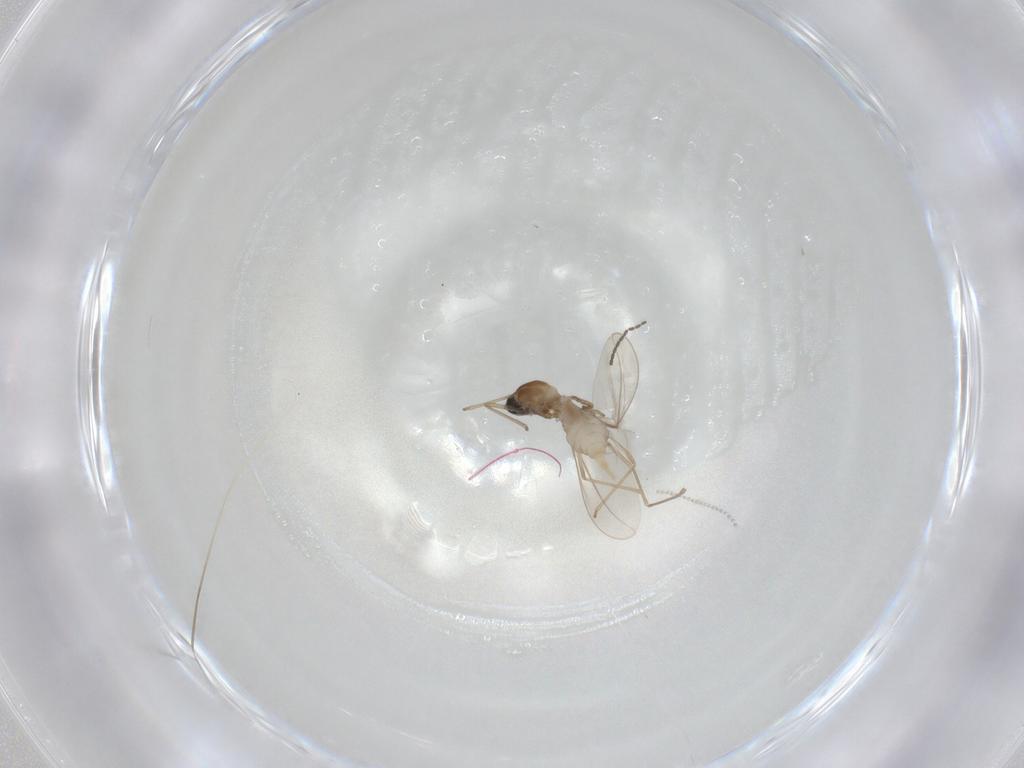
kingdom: Animalia
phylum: Arthropoda
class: Insecta
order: Diptera
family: Cecidomyiidae
